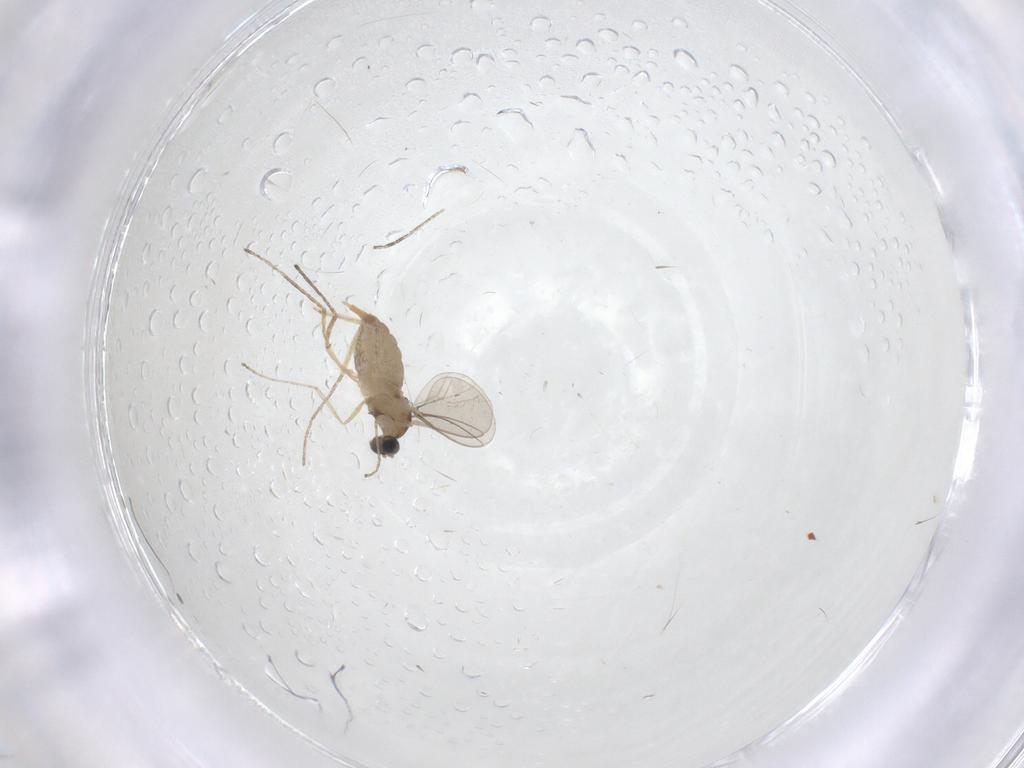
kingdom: Animalia
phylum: Arthropoda
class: Insecta
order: Diptera
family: Cecidomyiidae
